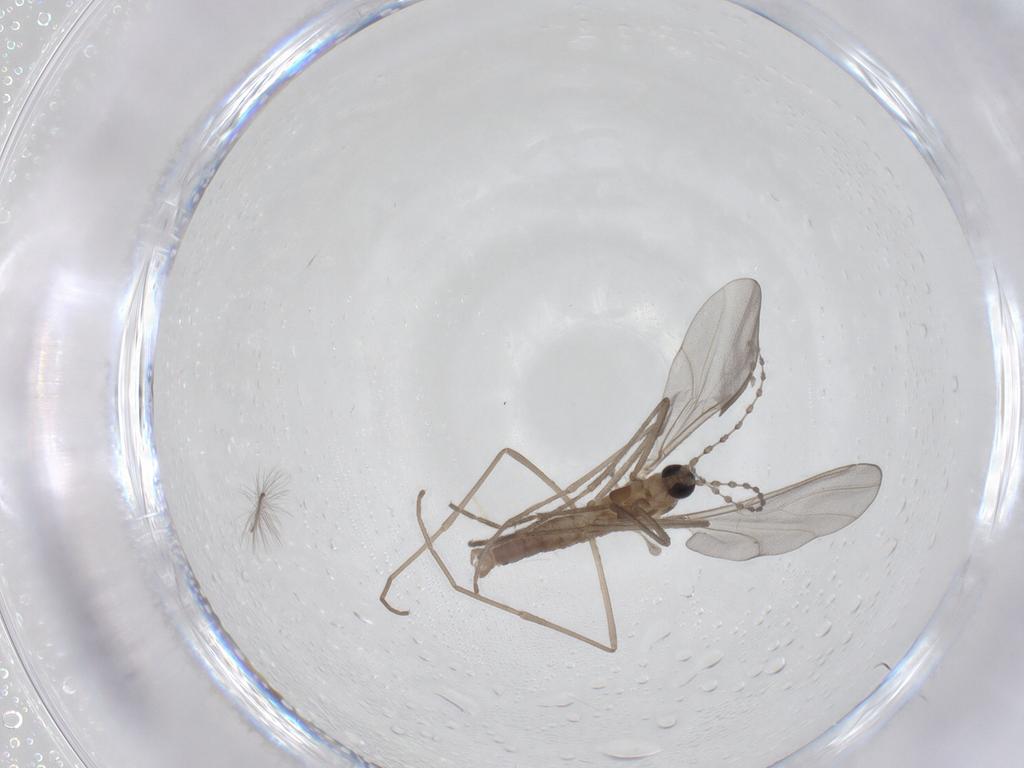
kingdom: Animalia
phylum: Arthropoda
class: Insecta
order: Diptera
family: Cecidomyiidae
